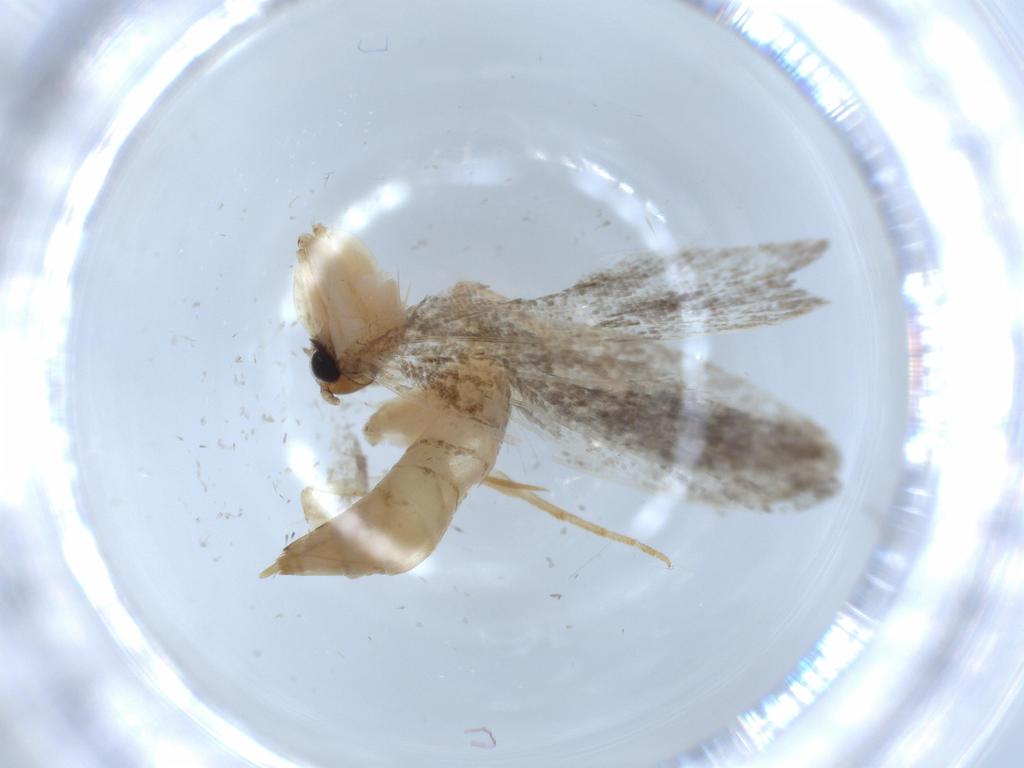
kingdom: Animalia
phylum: Arthropoda
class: Insecta
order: Lepidoptera
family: Tineidae
